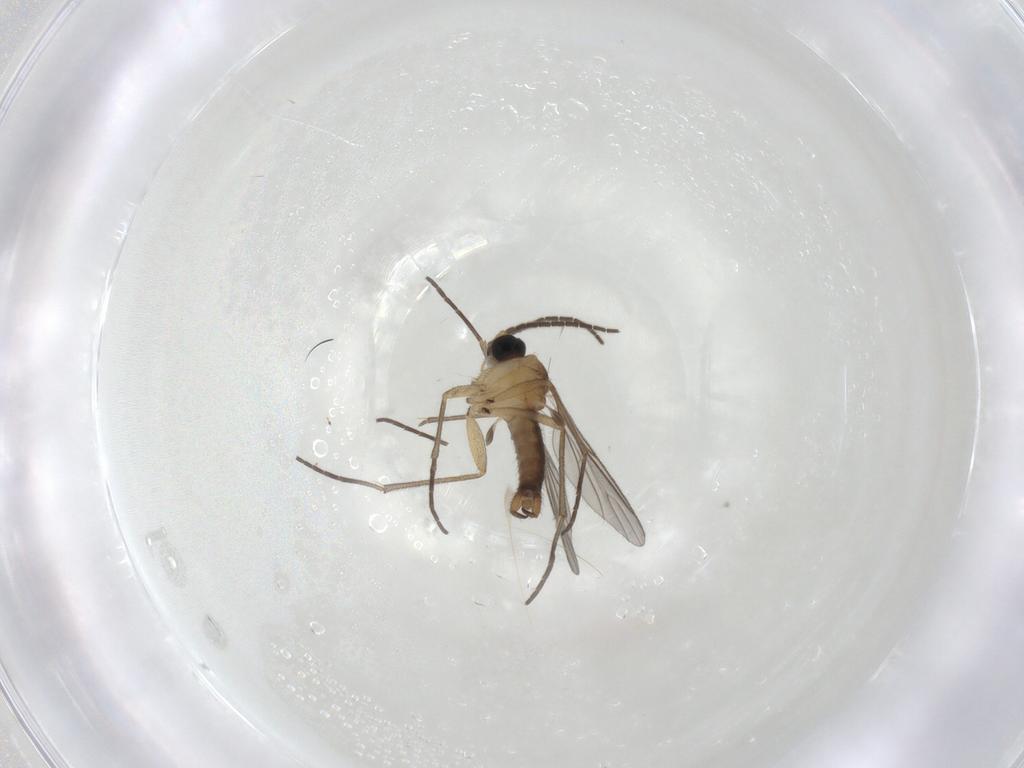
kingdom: Animalia
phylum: Arthropoda
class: Insecta
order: Diptera
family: Sciaridae
